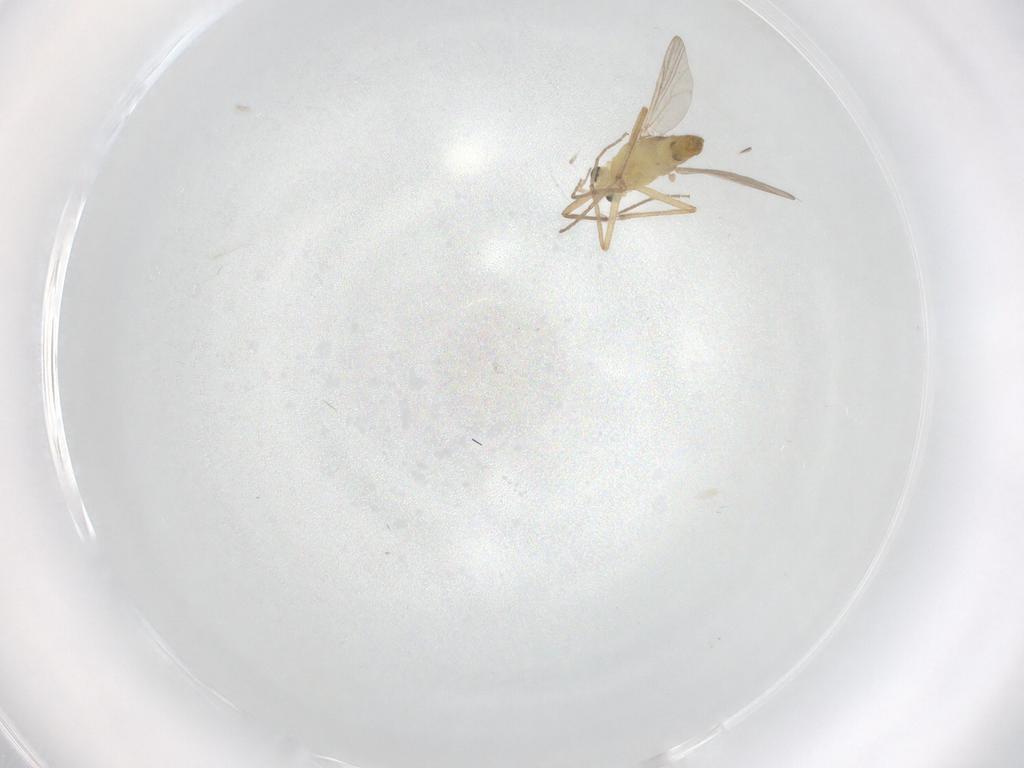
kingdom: Animalia
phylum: Arthropoda
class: Insecta
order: Diptera
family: Chironomidae
